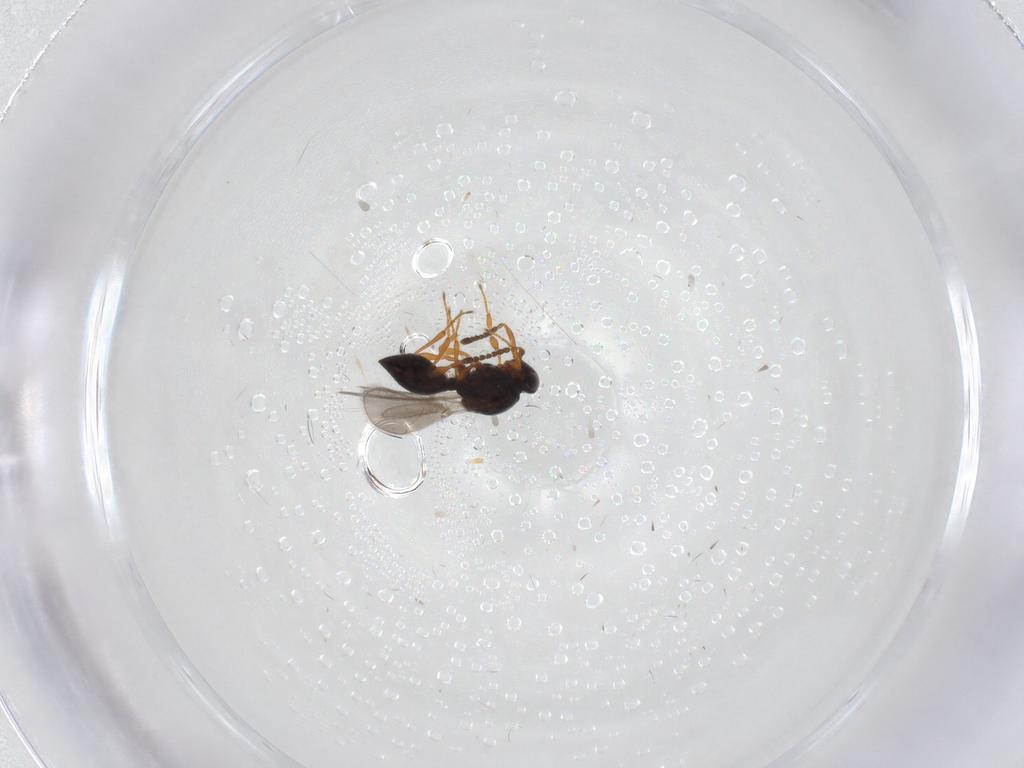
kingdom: Animalia
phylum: Arthropoda
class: Insecta
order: Hymenoptera
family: Platygastridae
